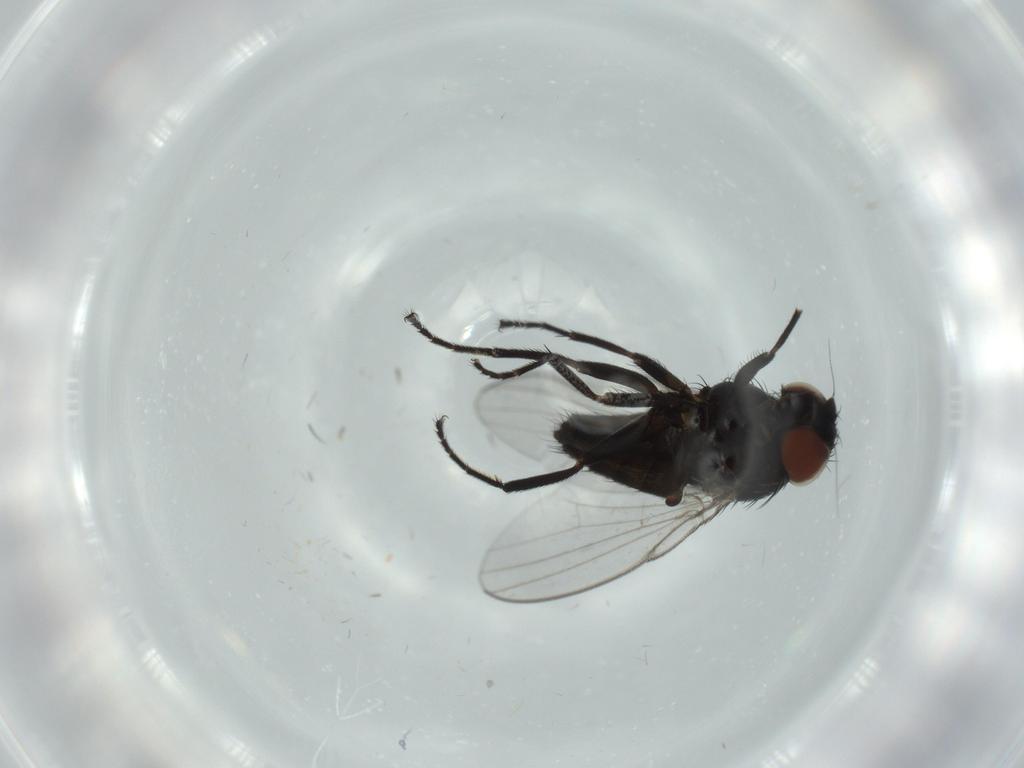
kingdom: Animalia
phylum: Arthropoda
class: Insecta
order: Diptera
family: Milichiidae
